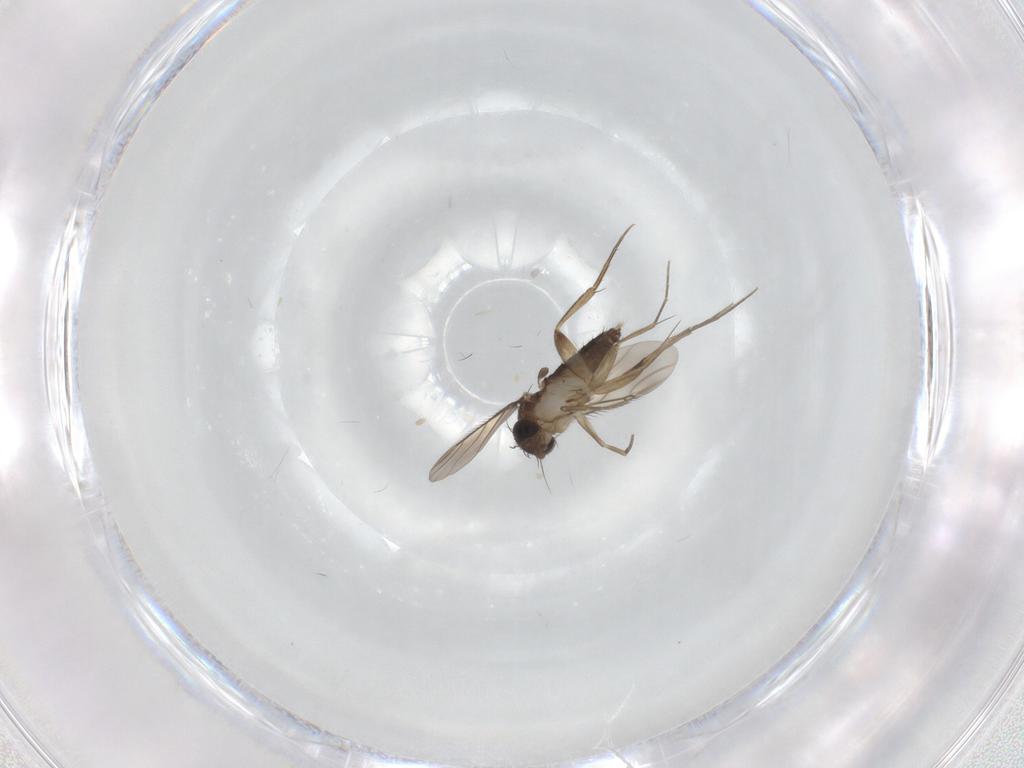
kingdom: Animalia
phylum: Arthropoda
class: Insecta
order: Diptera
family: Phoridae
